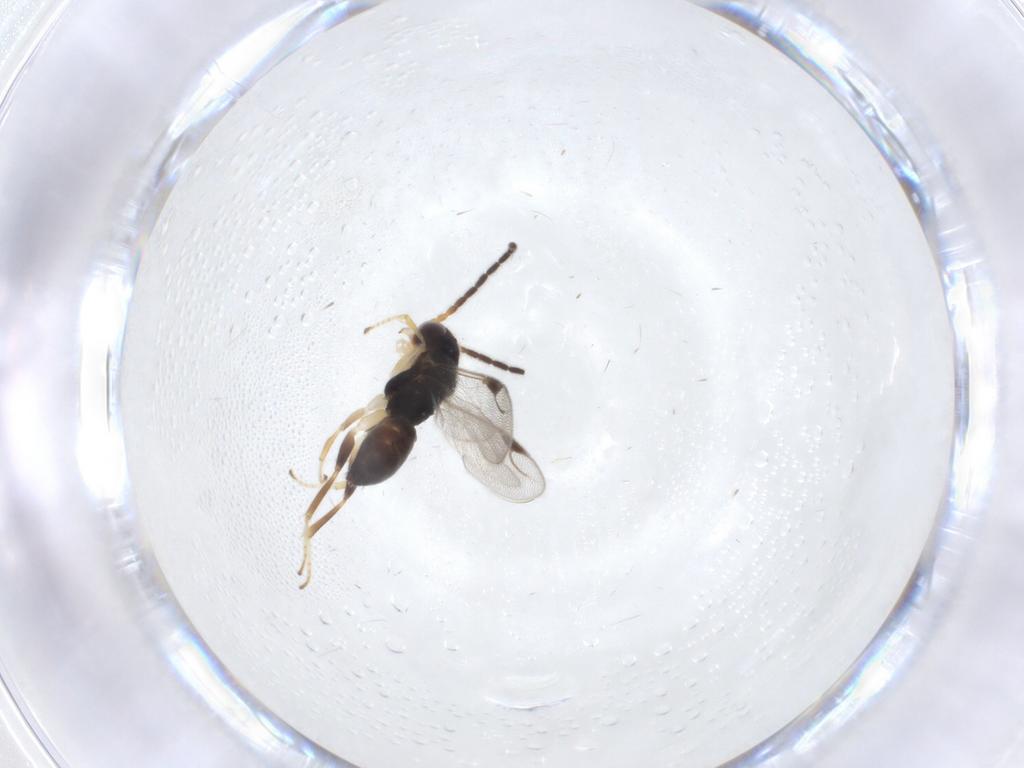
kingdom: Animalia
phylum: Arthropoda
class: Insecta
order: Hymenoptera
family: Dryinidae
